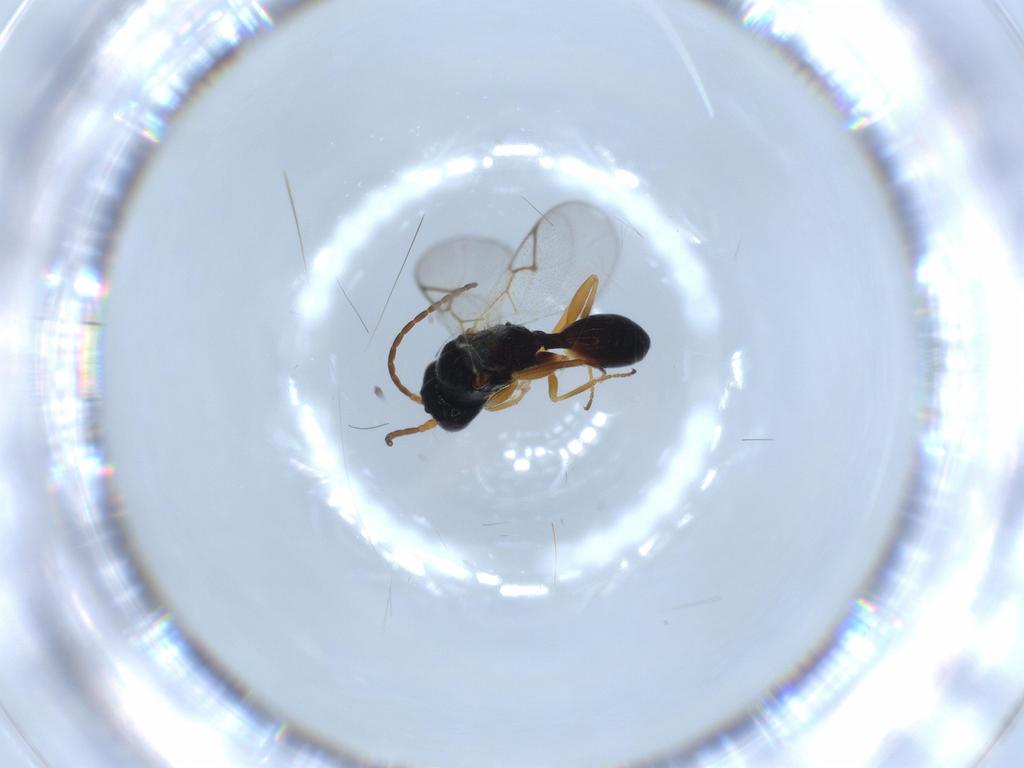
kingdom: Animalia
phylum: Arthropoda
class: Insecta
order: Hymenoptera
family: Figitidae
